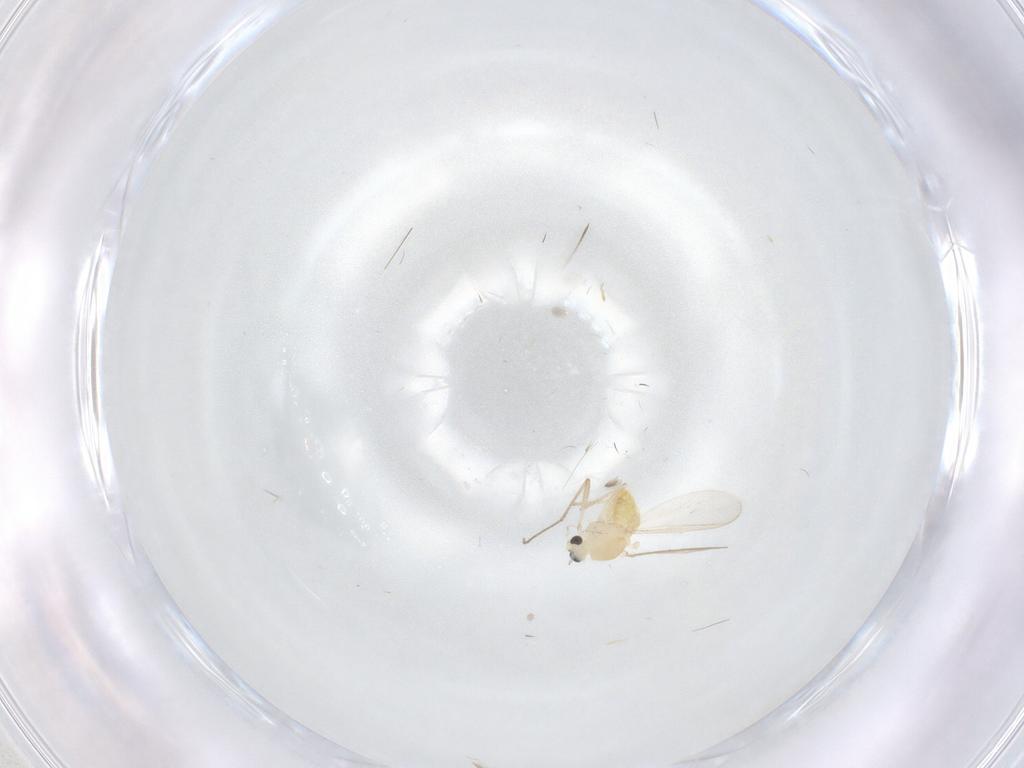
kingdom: Animalia
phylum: Arthropoda
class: Insecta
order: Diptera
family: Chironomidae
